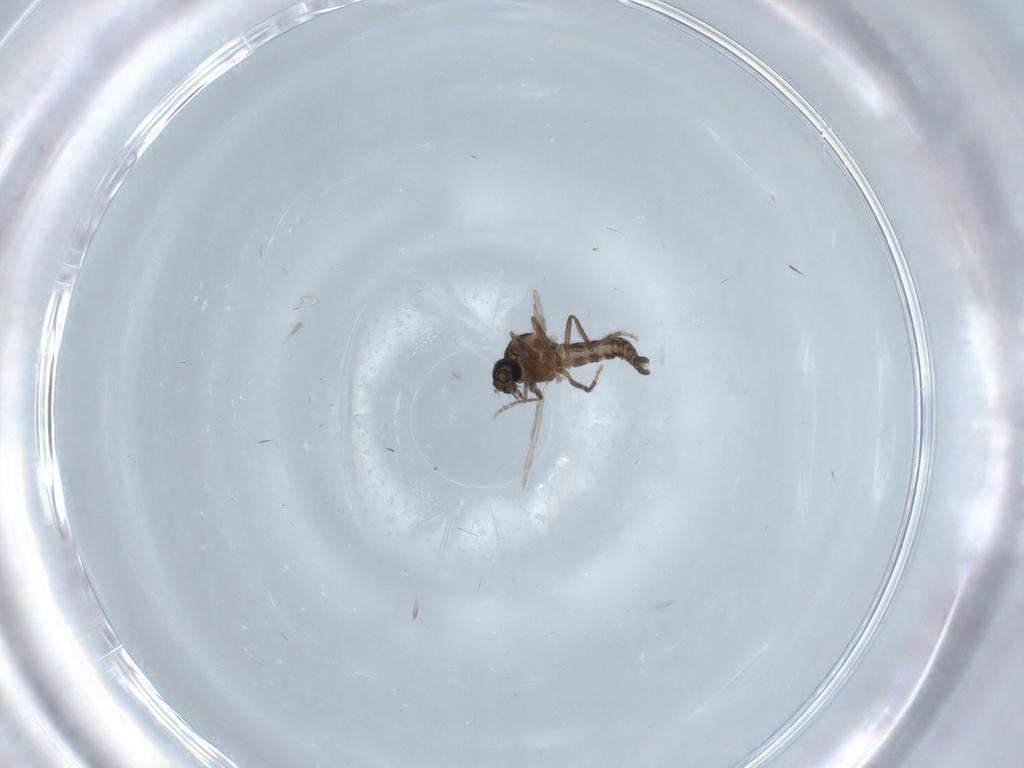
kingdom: Animalia
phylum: Arthropoda
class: Insecta
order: Diptera
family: Ceratopogonidae
